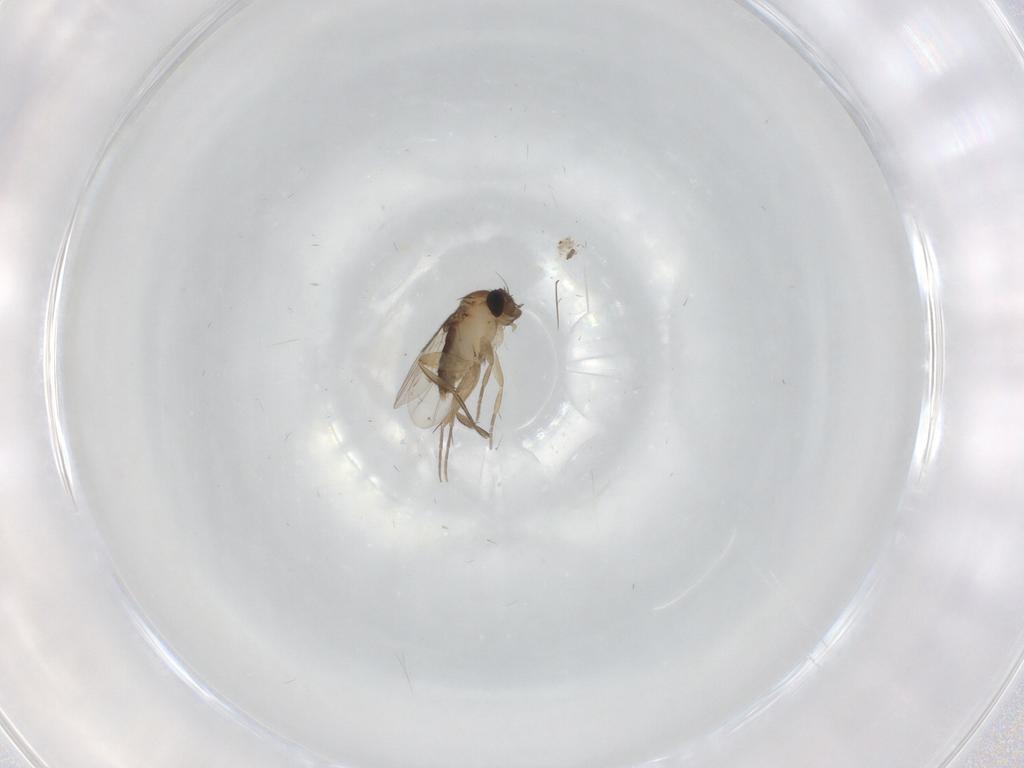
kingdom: Animalia
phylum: Arthropoda
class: Insecta
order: Diptera
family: Phoridae
